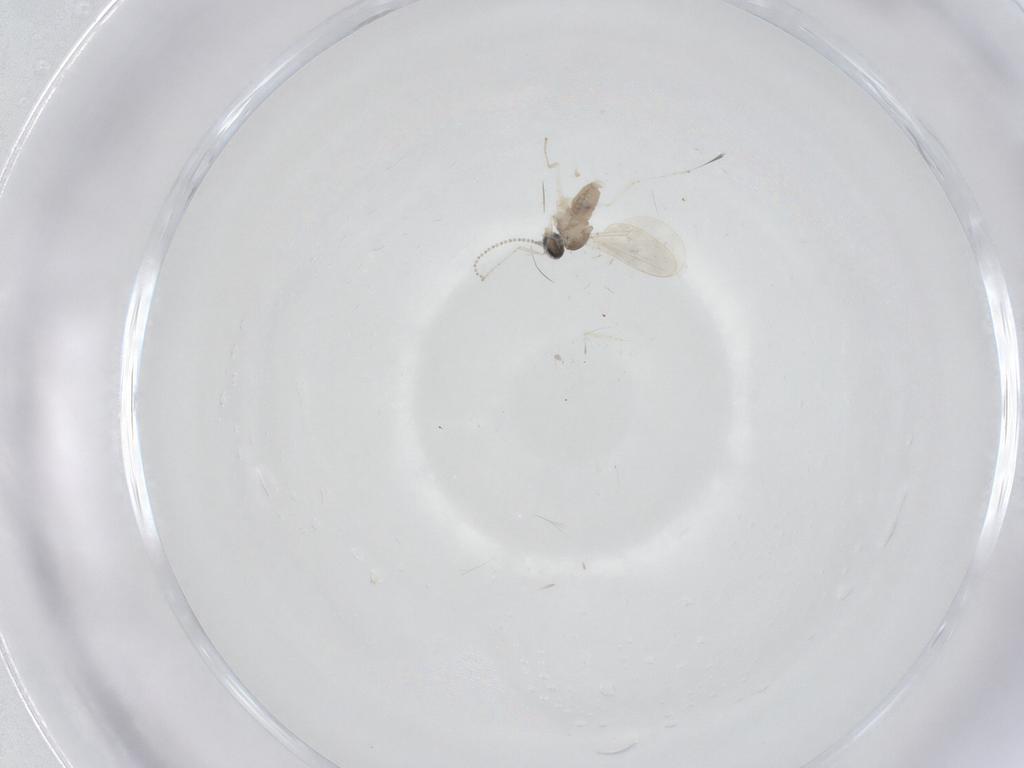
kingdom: Animalia
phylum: Arthropoda
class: Insecta
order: Diptera
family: Cecidomyiidae
